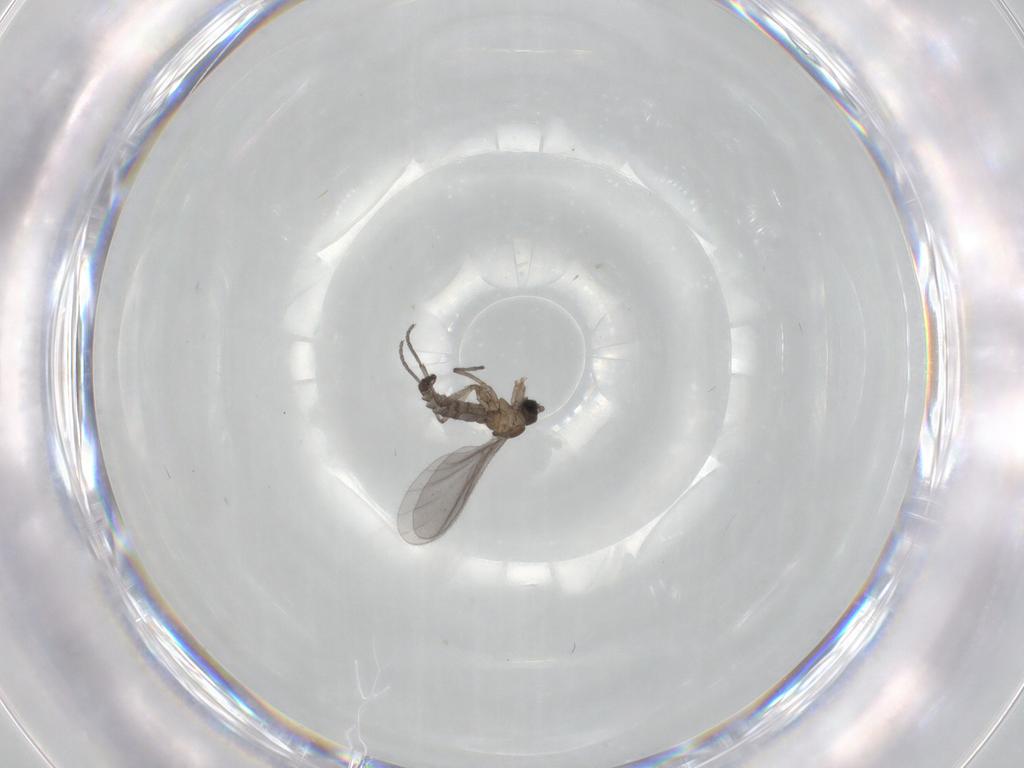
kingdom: Animalia
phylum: Arthropoda
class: Insecta
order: Diptera
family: Sciaridae
